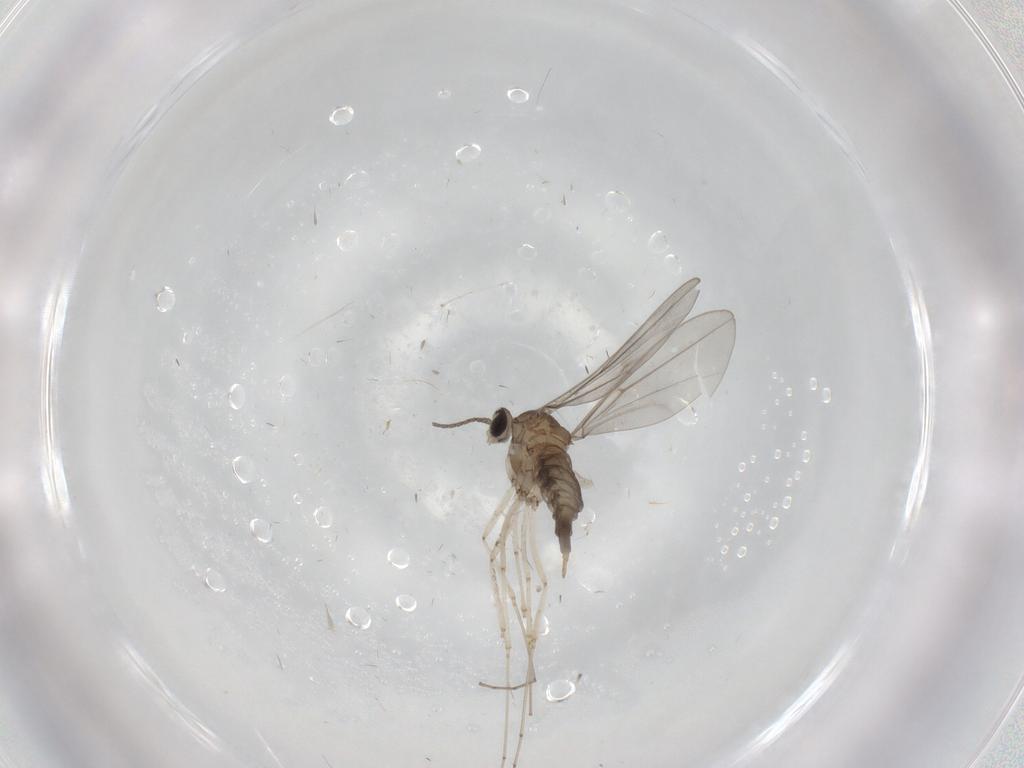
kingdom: Animalia
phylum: Arthropoda
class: Insecta
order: Diptera
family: Cecidomyiidae
